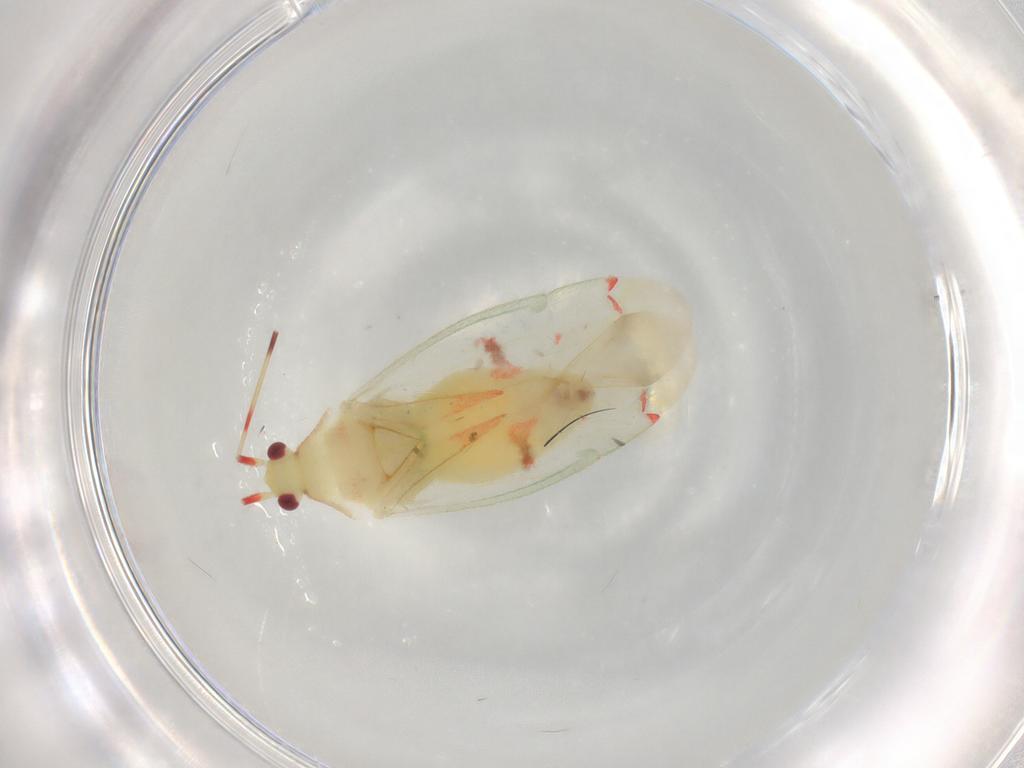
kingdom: Animalia
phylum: Arthropoda
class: Insecta
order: Hemiptera
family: Miridae
